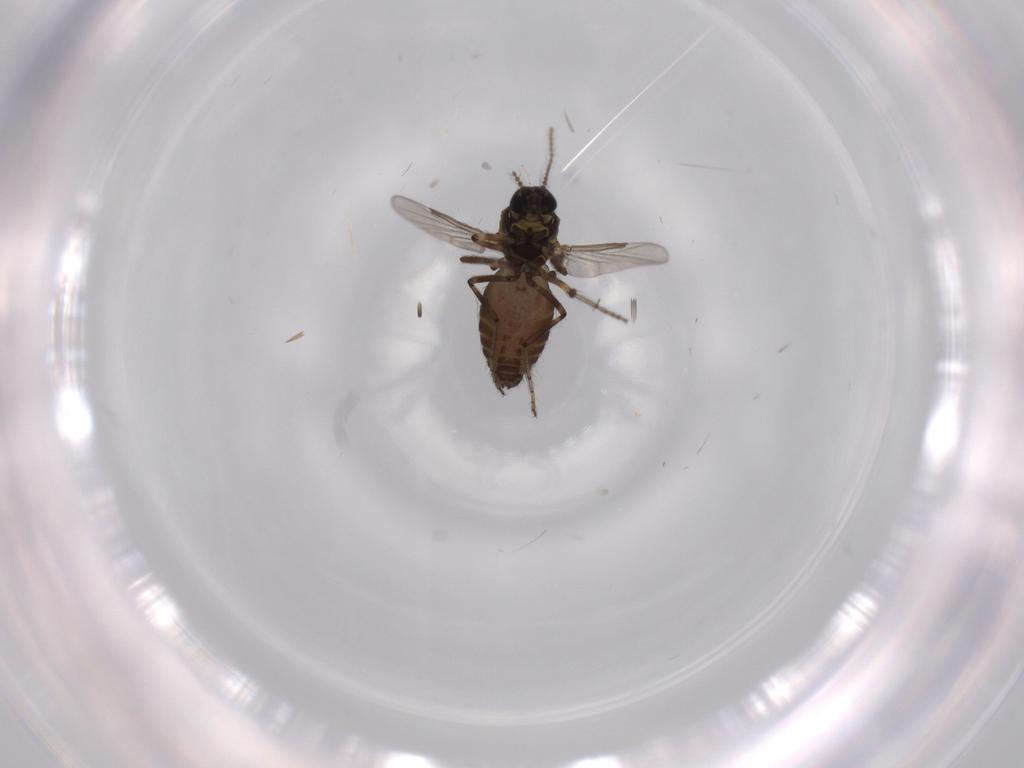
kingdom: Animalia
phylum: Arthropoda
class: Insecta
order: Diptera
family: Ceratopogonidae
